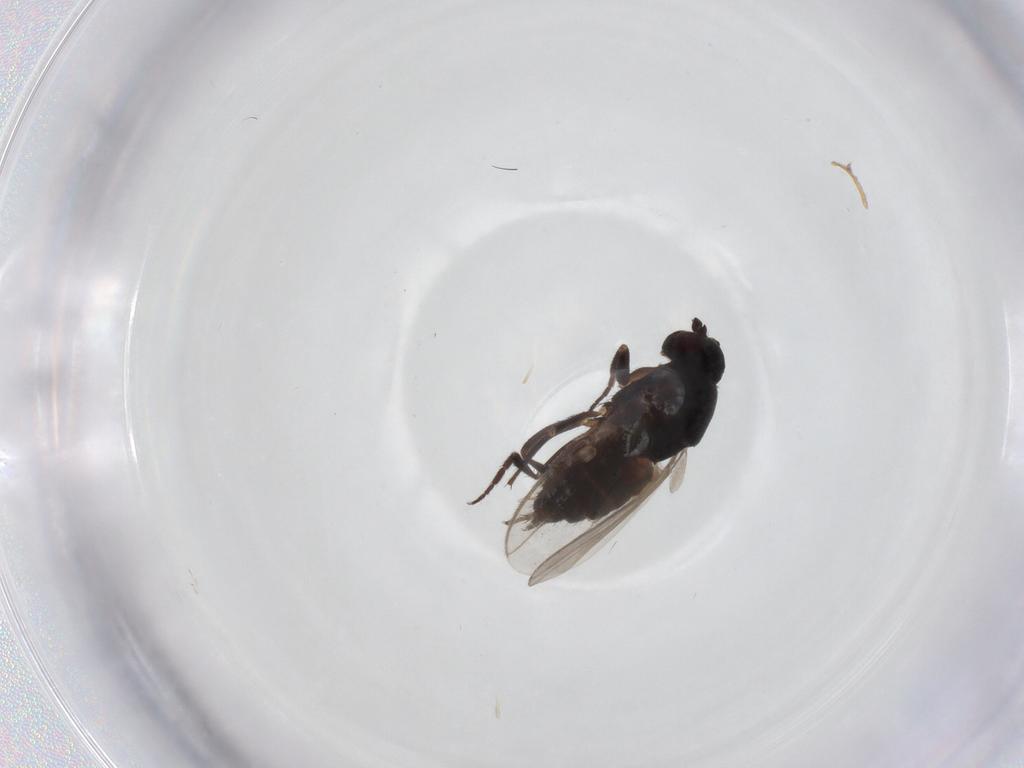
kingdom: Animalia
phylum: Arthropoda
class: Insecta
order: Diptera
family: Sphaeroceridae
